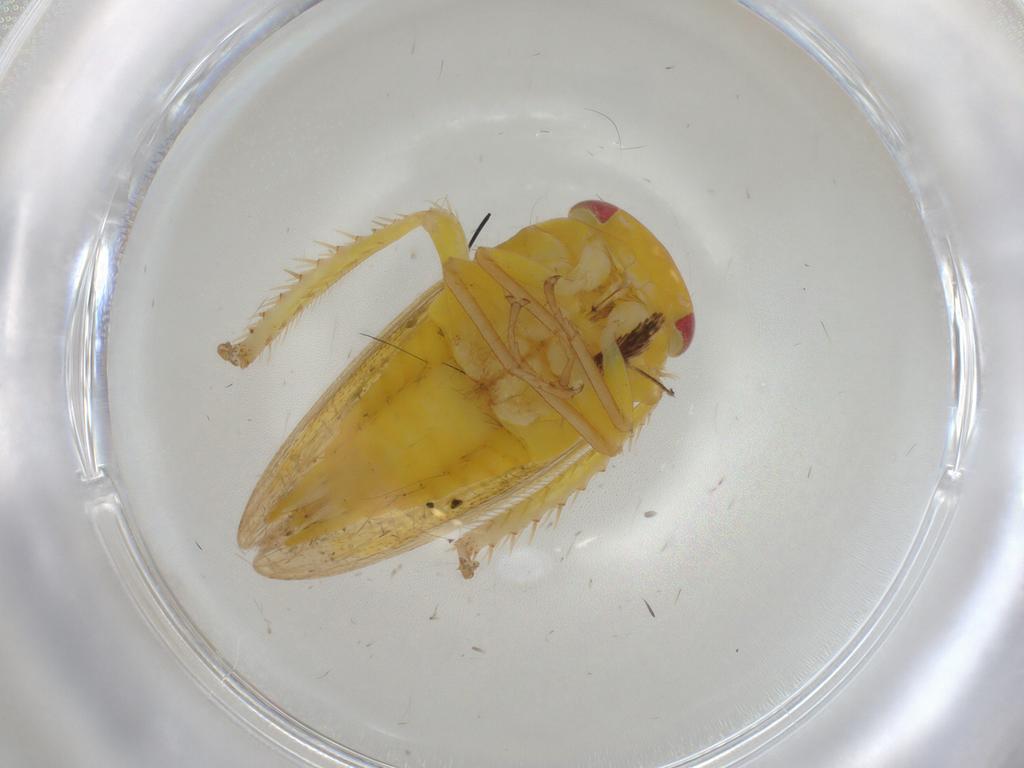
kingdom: Animalia
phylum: Arthropoda
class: Insecta
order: Hemiptera
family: Cicadellidae
